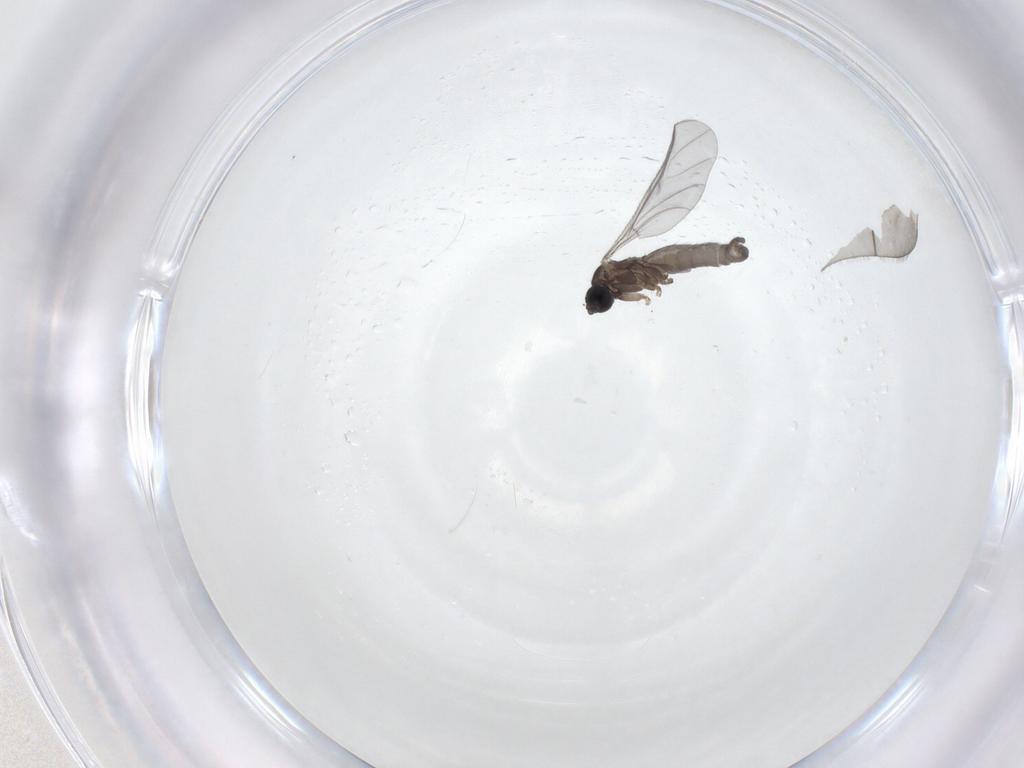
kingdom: Animalia
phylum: Arthropoda
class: Insecta
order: Diptera
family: Sciaridae
